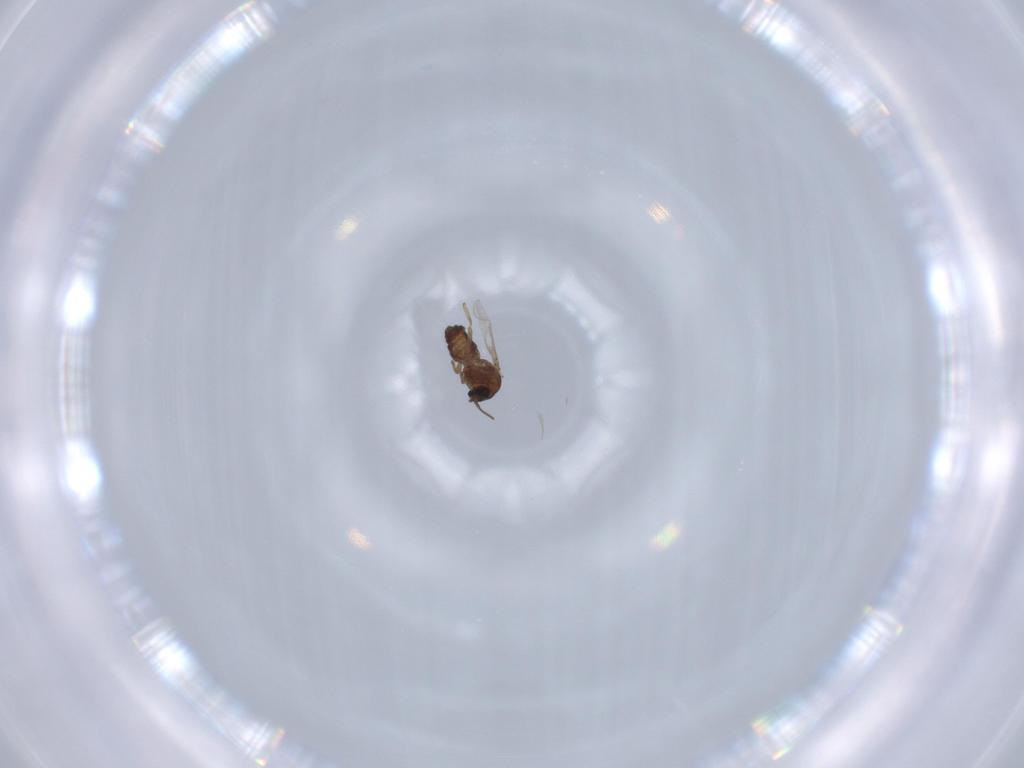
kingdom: Animalia
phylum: Arthropoda
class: Insecta
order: Diptera
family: Ceratopogonidae
